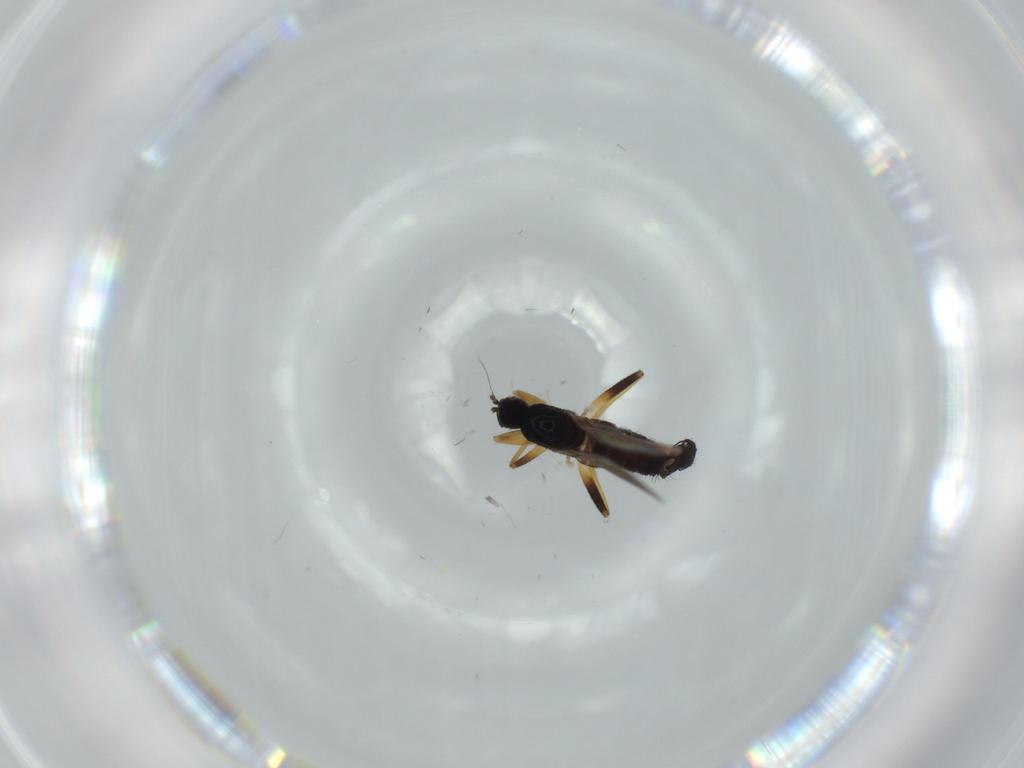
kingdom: Animalia
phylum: Arthropoda
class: Insecta
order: Diptera
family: Hybotidae
